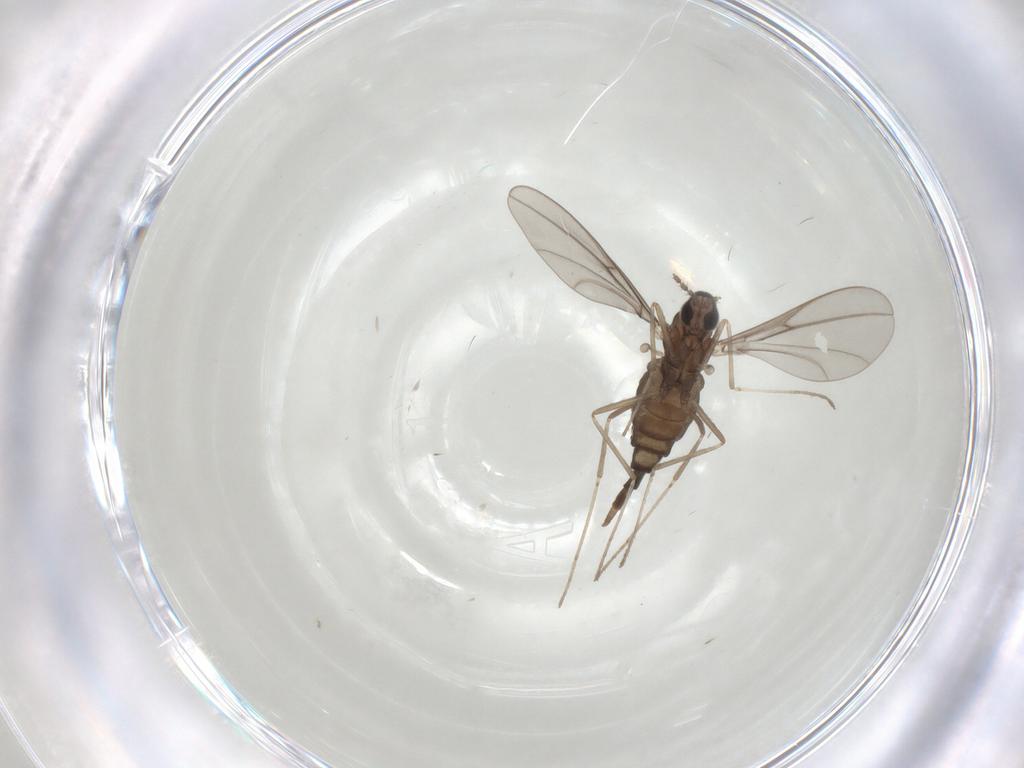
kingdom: Animalia
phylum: Arthropoda
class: Insecta
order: Diptera
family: Cecidomyiidae
